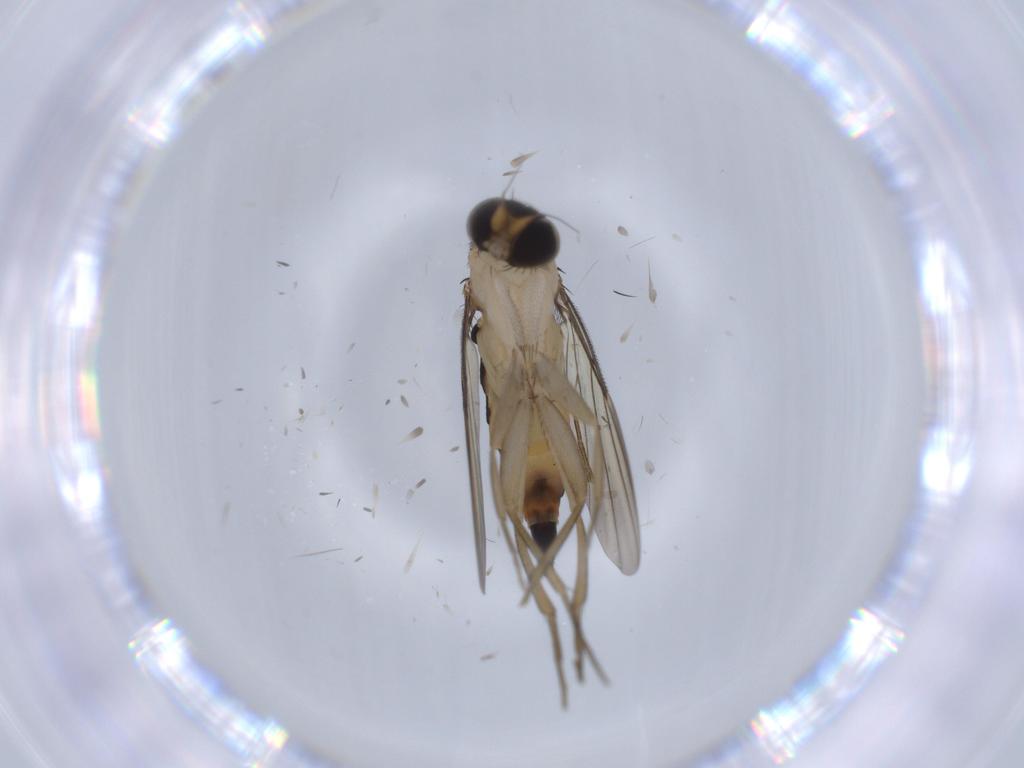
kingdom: Animalia
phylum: Arthropoda
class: Insecta
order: Diptera
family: Phoridae
